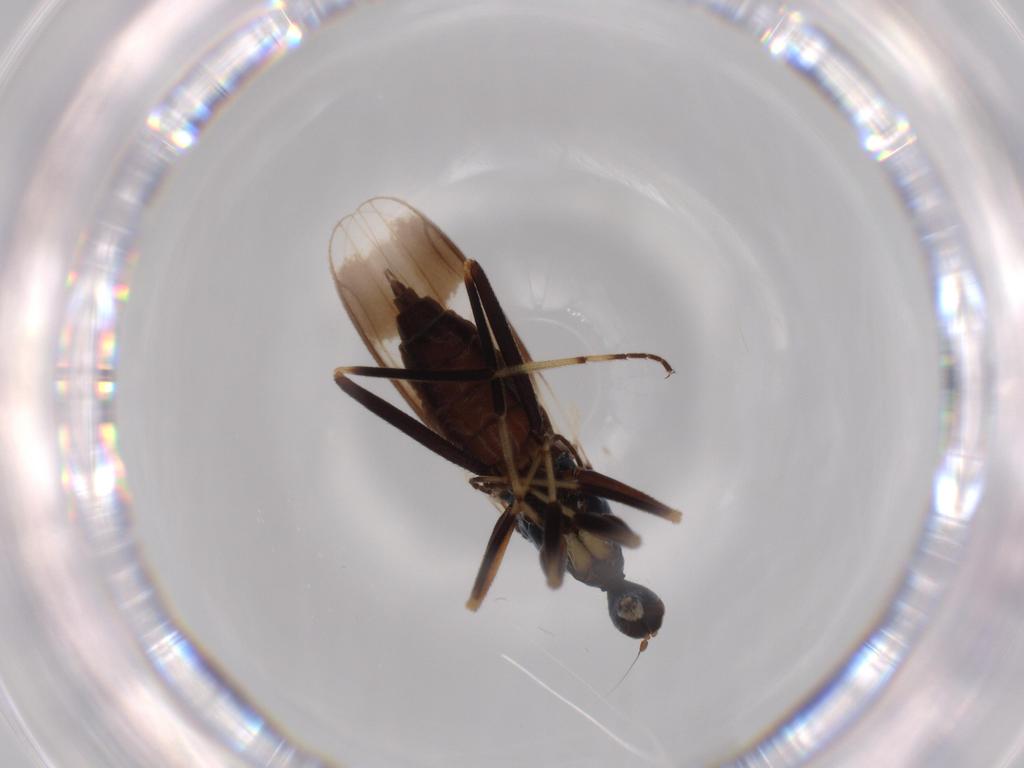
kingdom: Animalia
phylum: Arthropoda
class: Insecta
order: Diptera
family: Hybotidae
